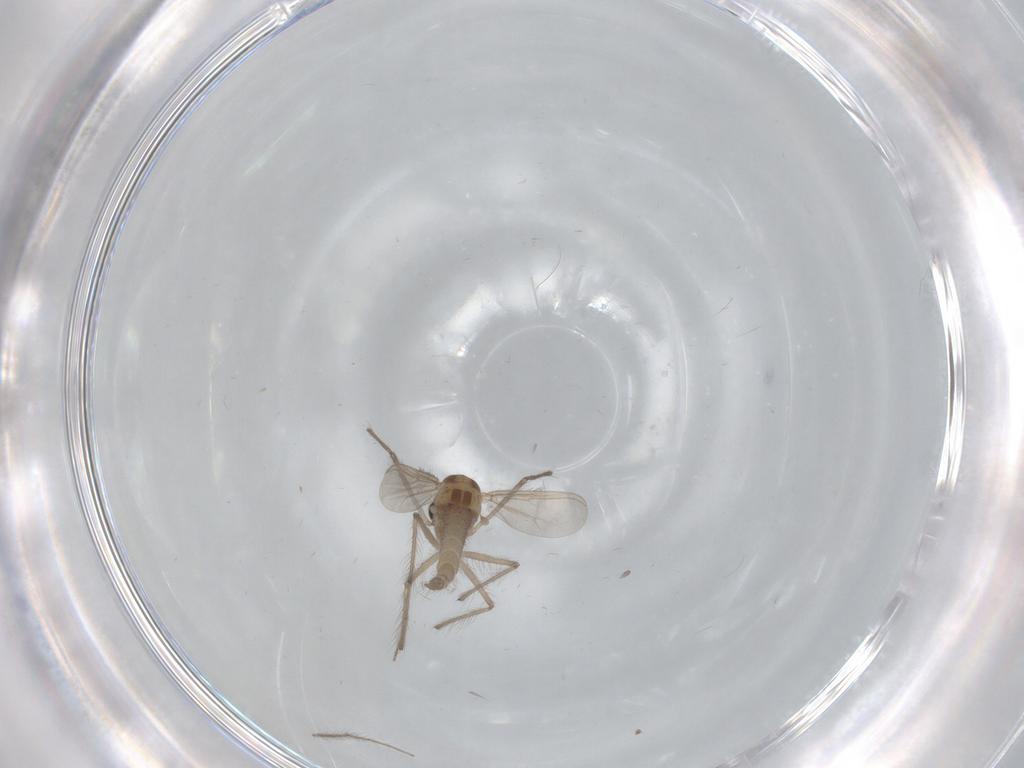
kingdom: Animalia
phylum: Arthropoda
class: Insecta
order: Diptera
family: Chironomidae
